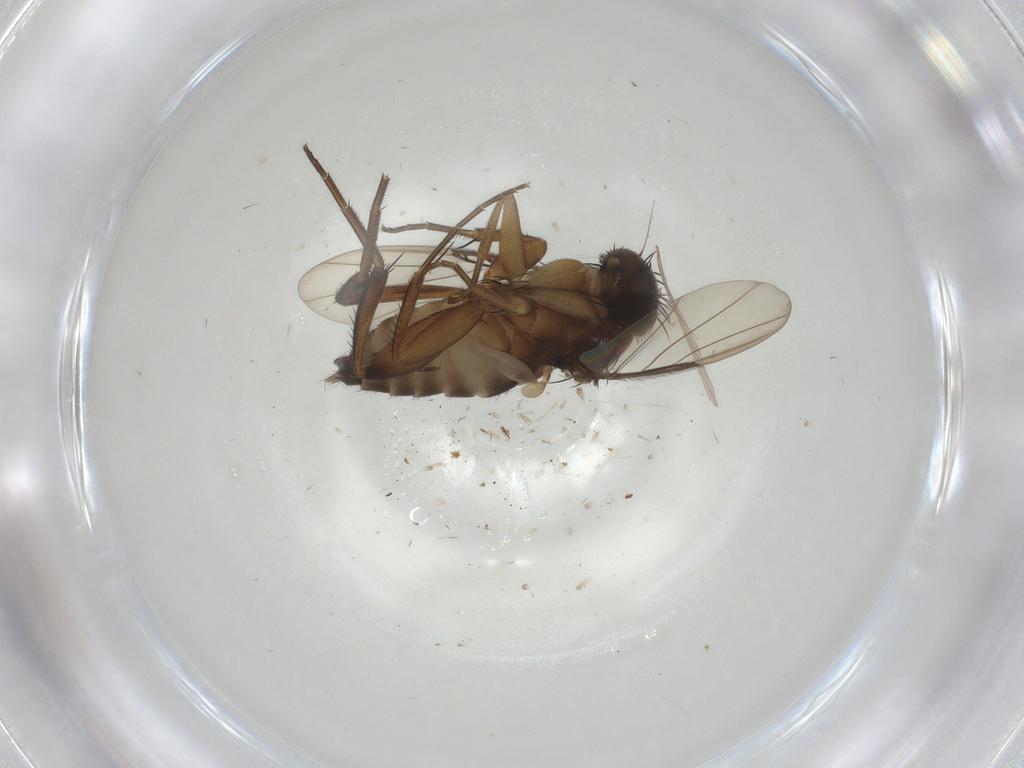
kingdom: Animalia
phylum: Arthropoda
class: Insecta
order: Diptera
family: Phoridae
